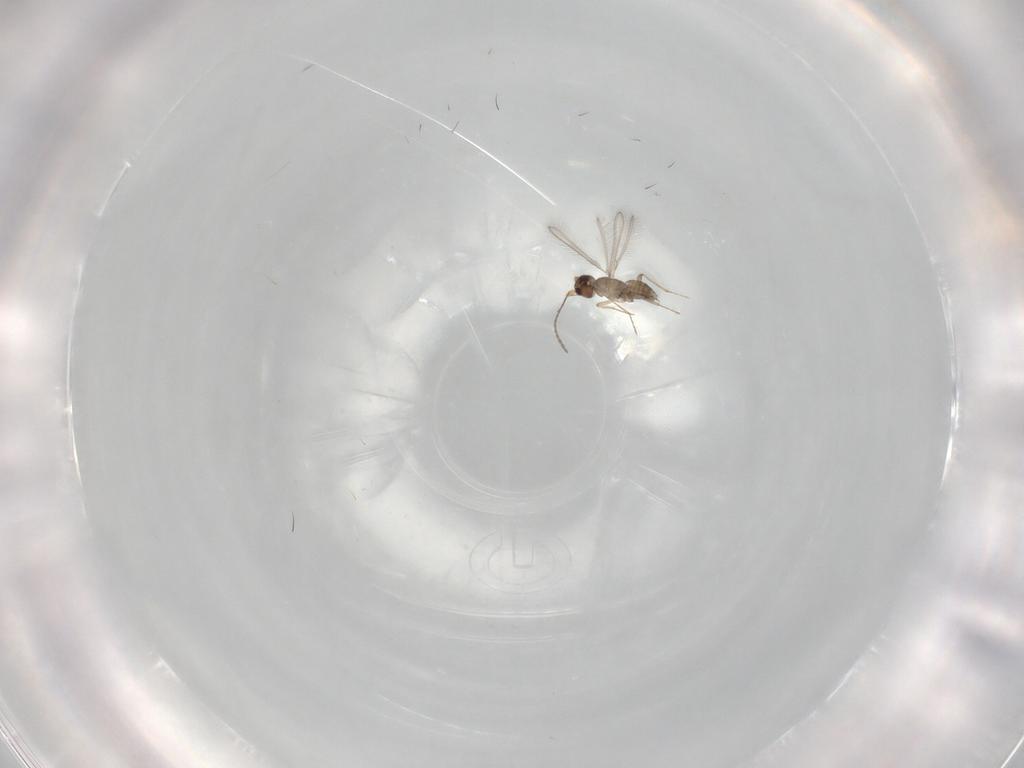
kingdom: Animalia
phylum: Arthropoda
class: Insecta
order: Hymenoptera
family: Mymaridae
